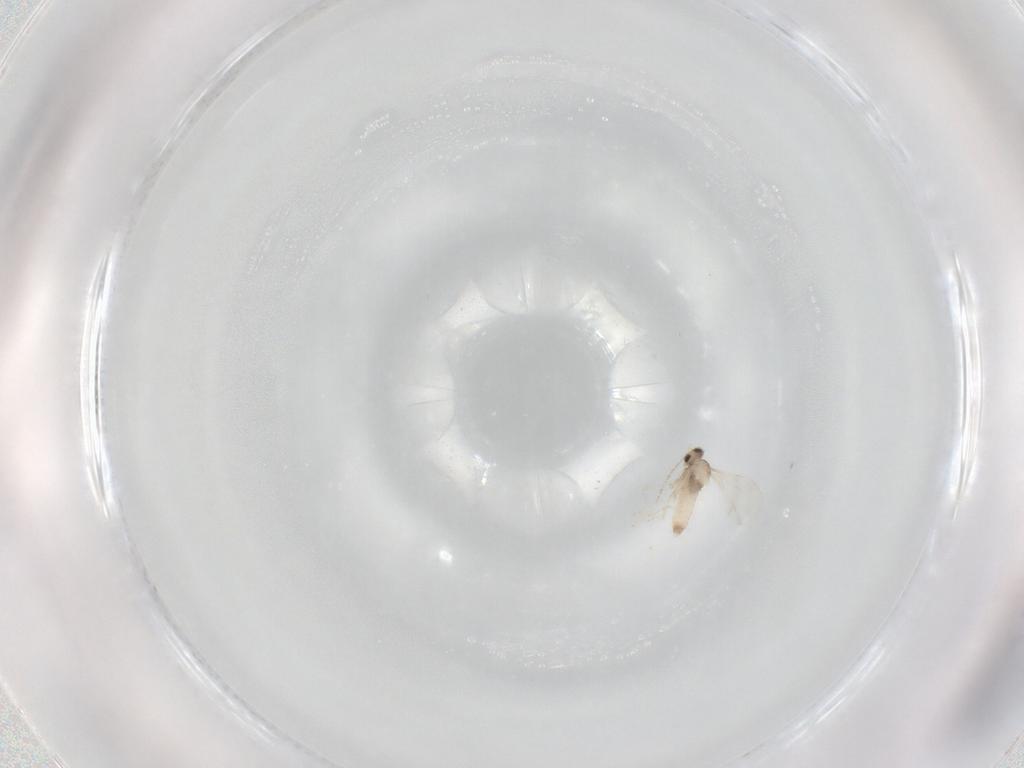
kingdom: Animalia
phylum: Arthropoda
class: Insecta
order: Diptera
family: Cecidomyiidae
